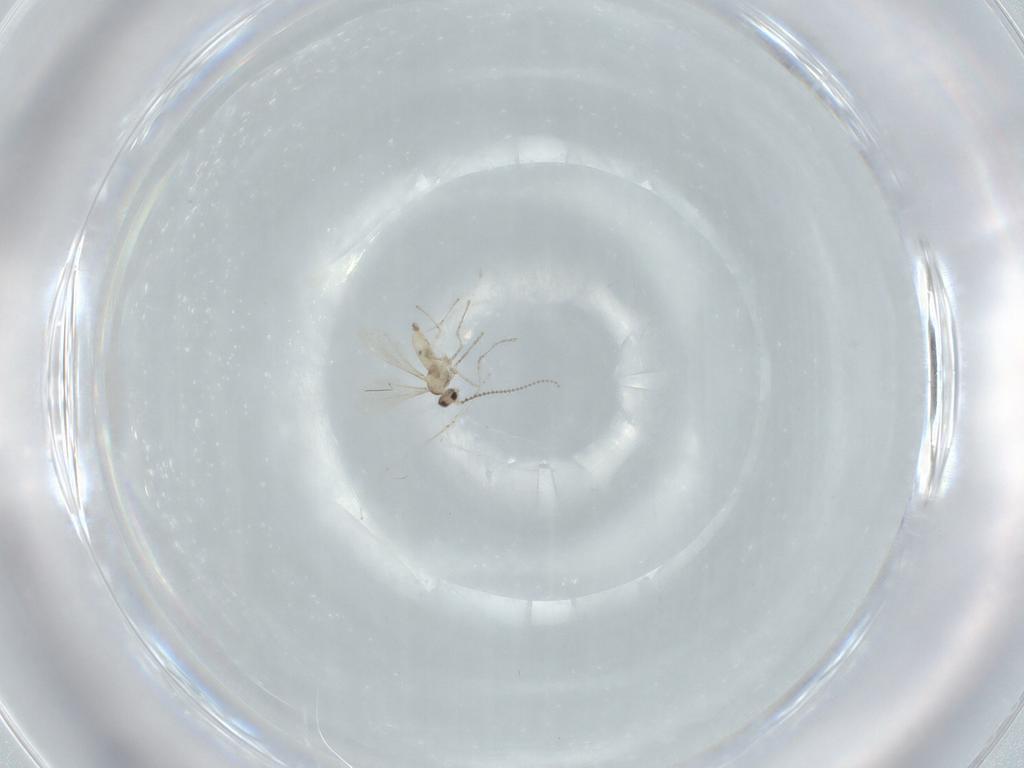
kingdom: Animalia
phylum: Arthropoda
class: Insecta
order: Diptera
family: Cecidomyiidae
